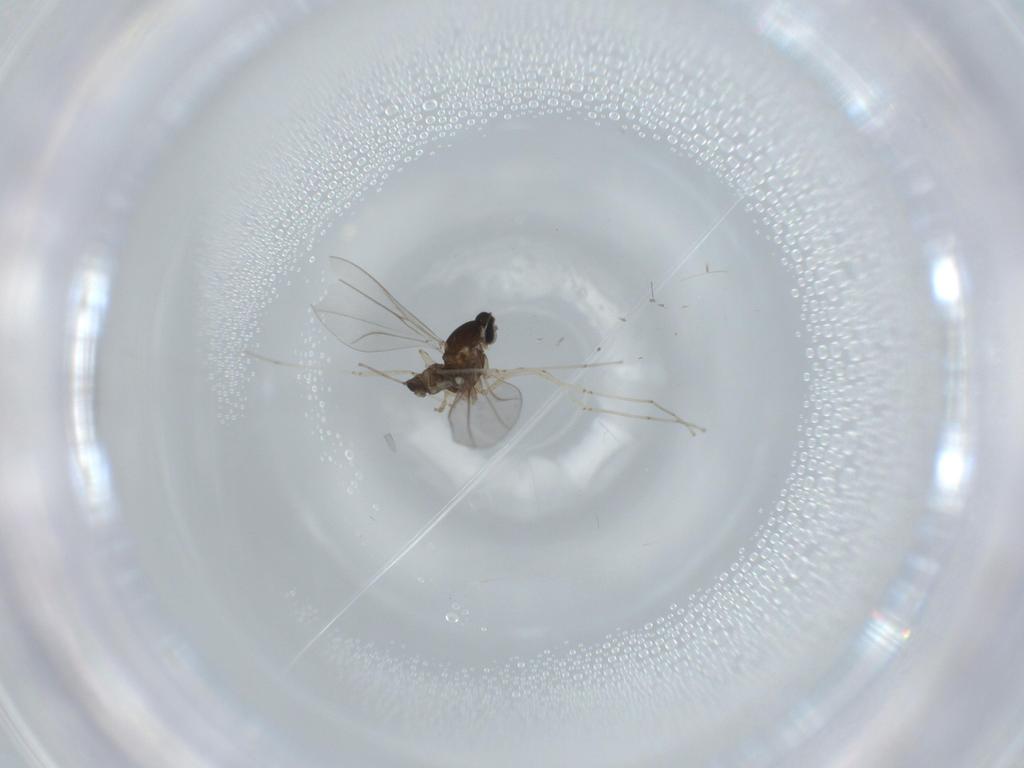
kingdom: Animalia
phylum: Arthropoda
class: Insecta
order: Diptera
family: Cecidomyiidae
